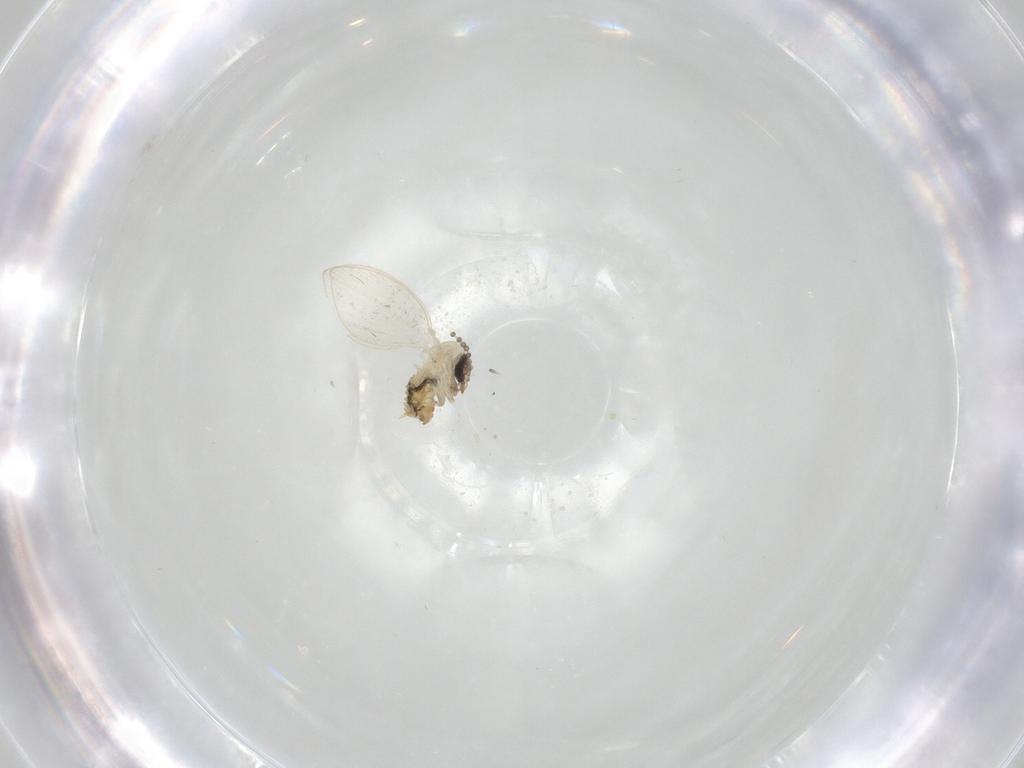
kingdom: Animalia
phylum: Arthropoda
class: Insecta
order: Diptera
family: Psychodidae
